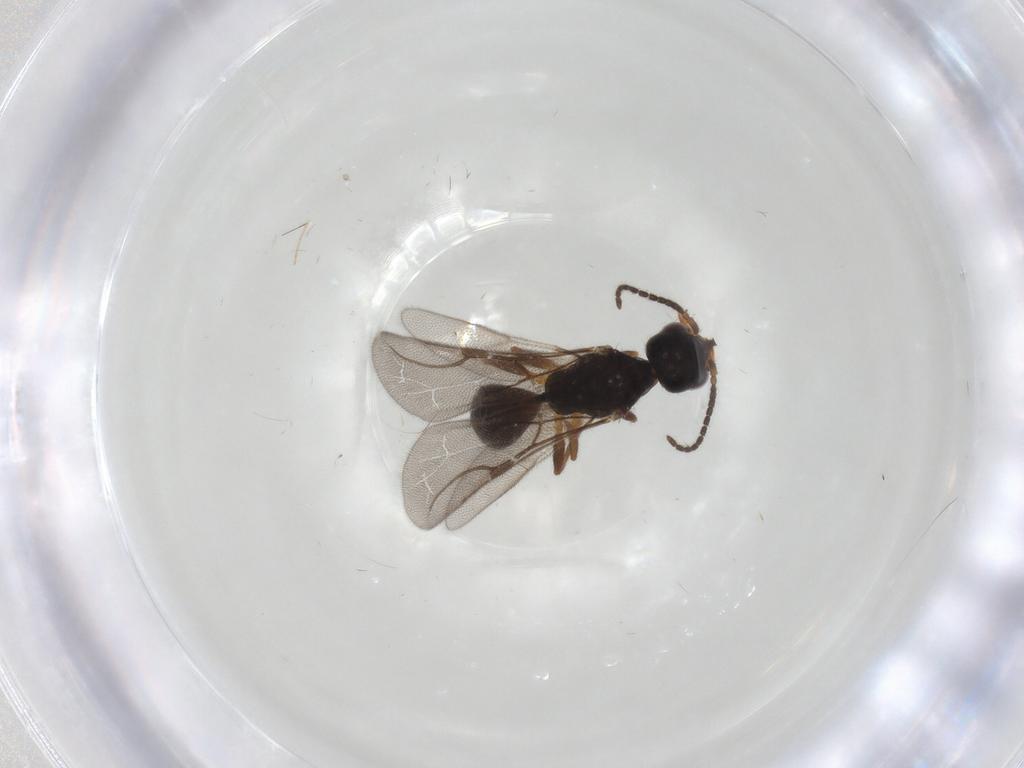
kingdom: Animalia
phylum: Arthropoda
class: Insecta
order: Hymenoptera
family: Bethylidae
